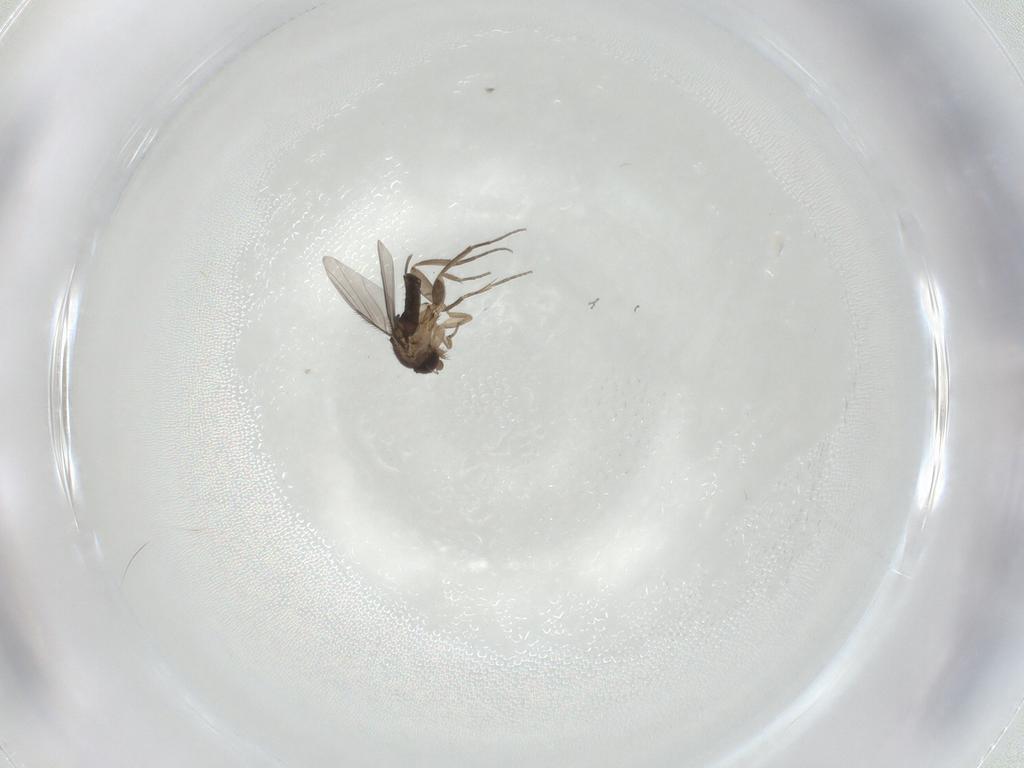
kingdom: Animalia
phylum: Arthropoda
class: Insecta
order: Diptera
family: Phoridae
